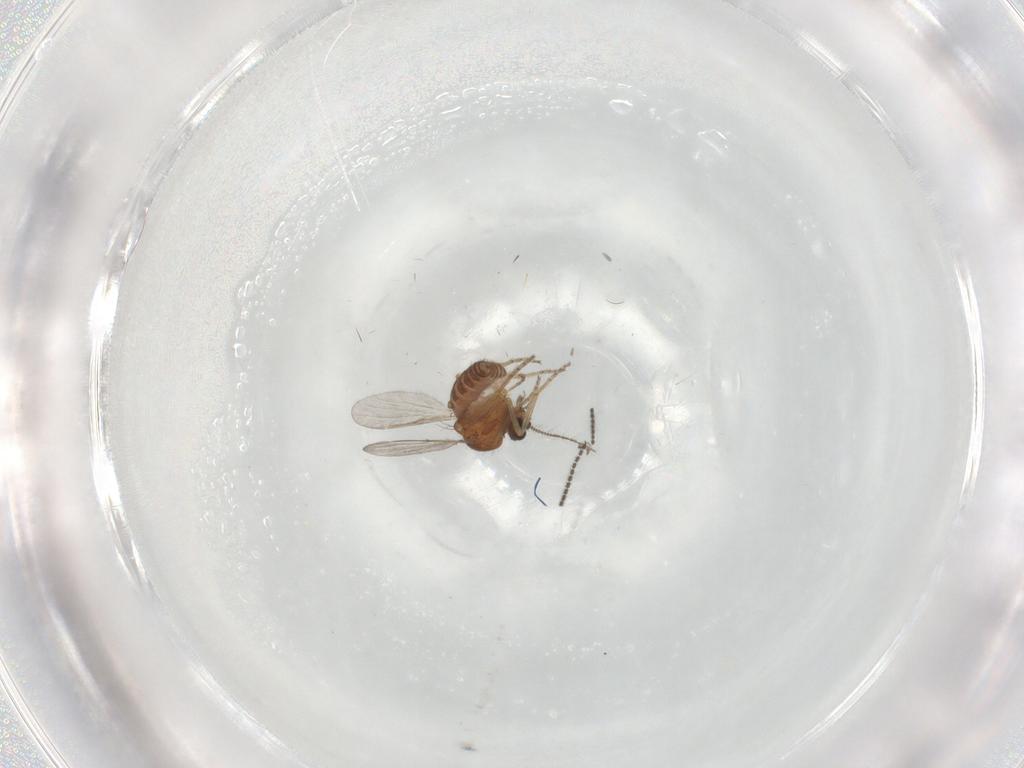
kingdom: Animalia
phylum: Arthropoda
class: Insecta
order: Diptera
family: Ceratopogonidae
